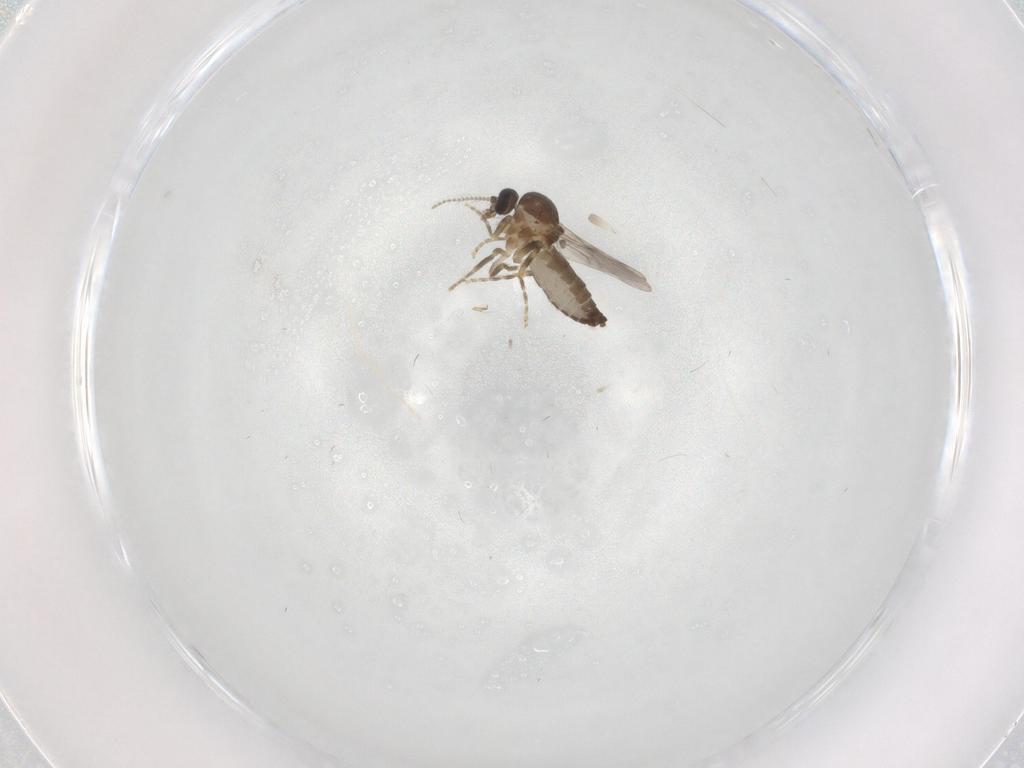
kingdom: Animalia
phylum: Arthropoda
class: Insecta
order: Diptera
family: Ceratopogonidae
